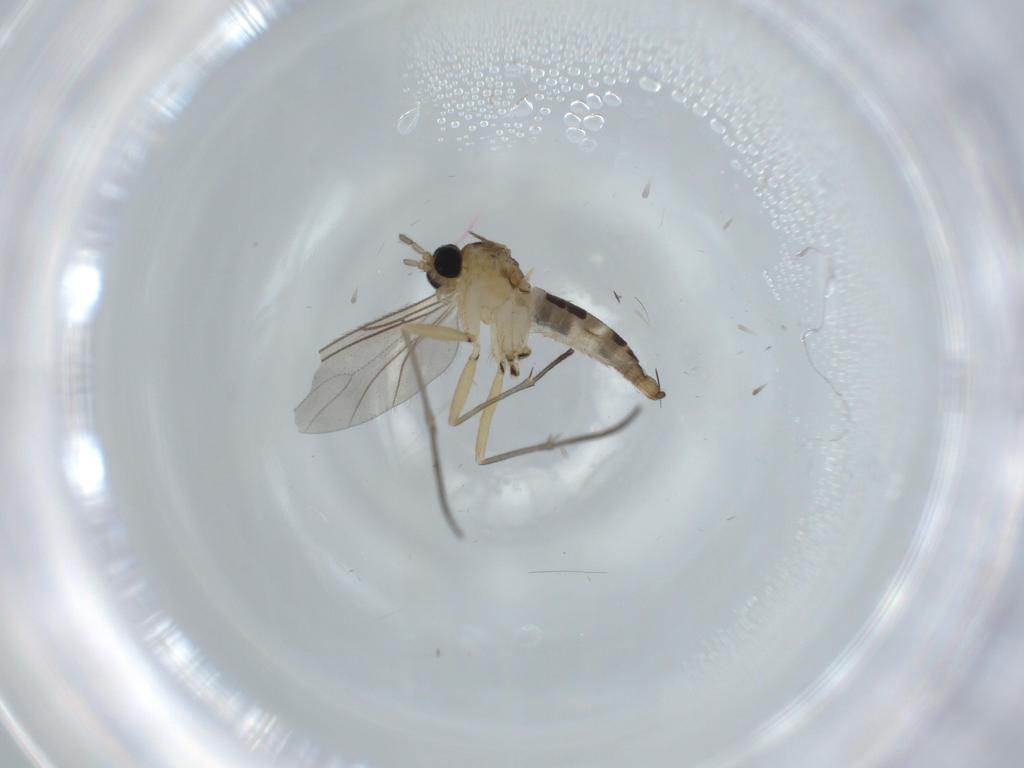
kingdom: Animalia
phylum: Arthropoda
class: Insecta
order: Diptera
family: Sciaridae
